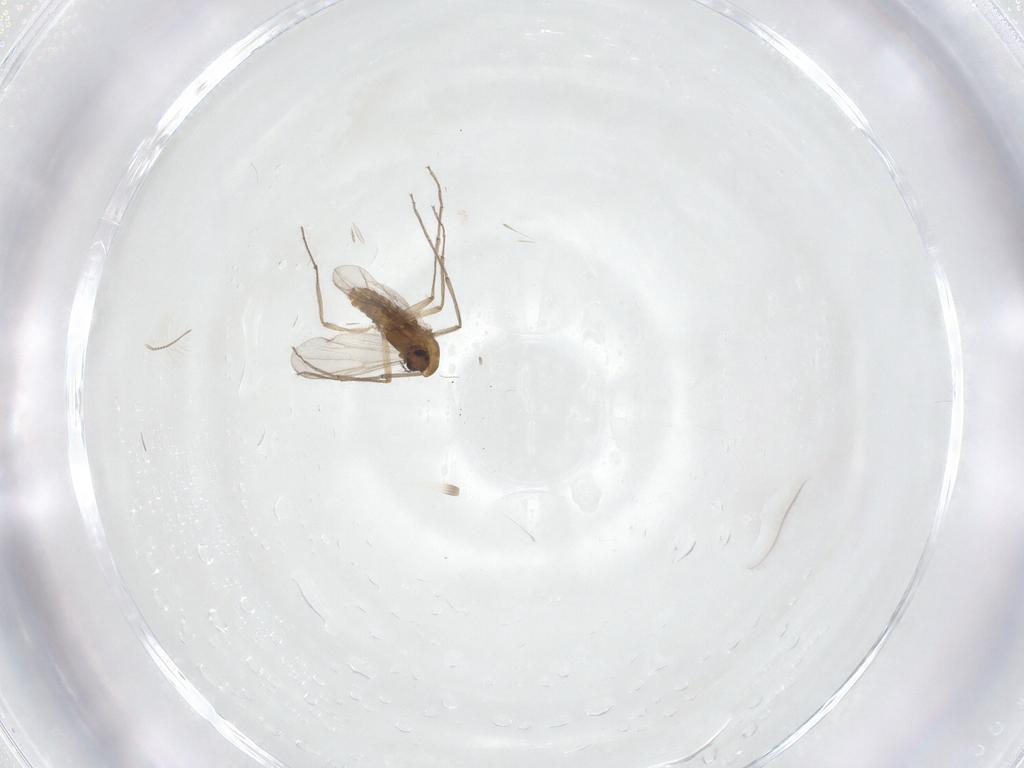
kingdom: Animalia
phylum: Arthropoda
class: Insecta
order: Diptera
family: Chironomidae
